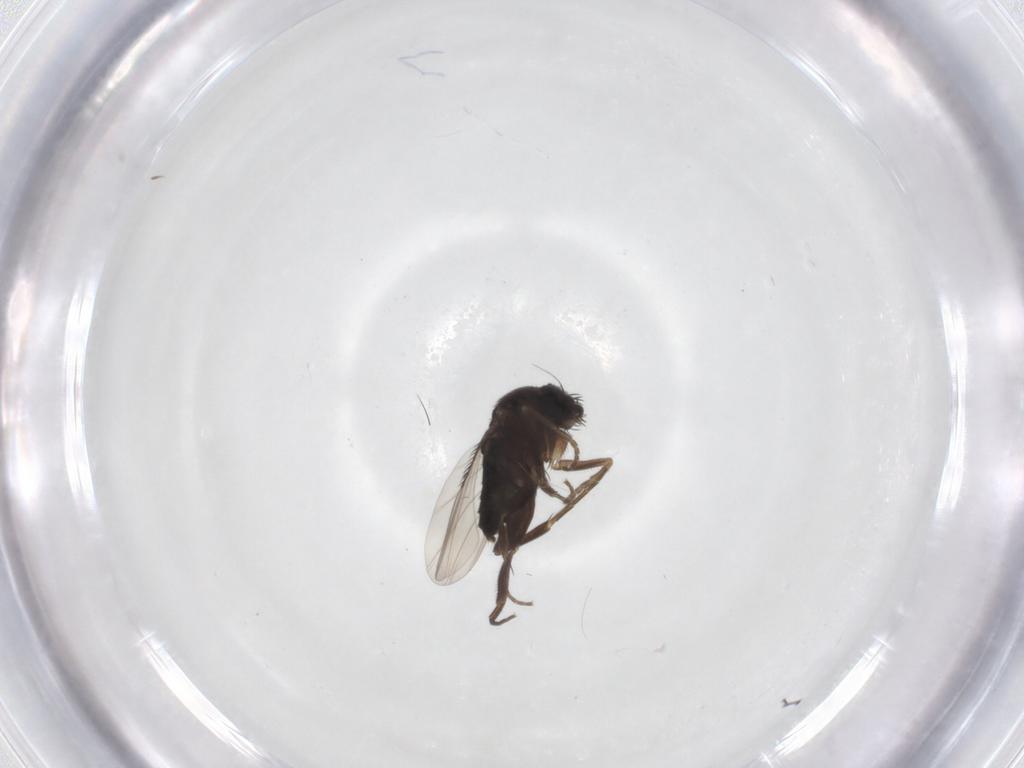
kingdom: Animalia
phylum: Arthropoda
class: Insecta
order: Diptera
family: Phoridae
